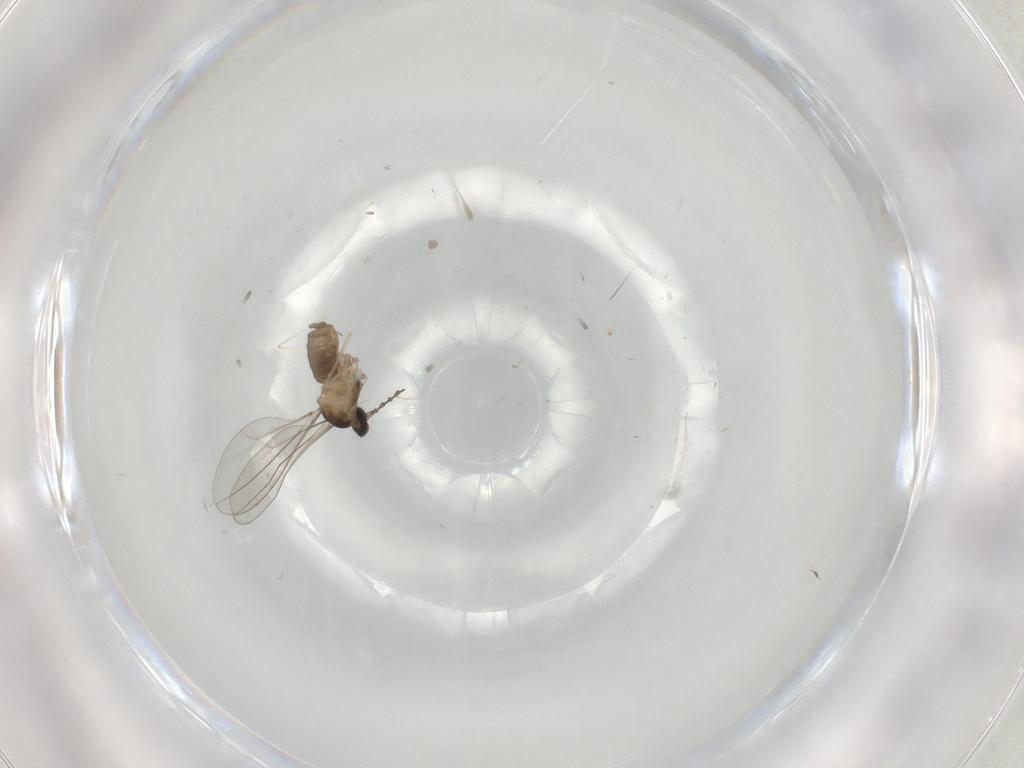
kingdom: Animalia
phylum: Arthropoda
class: Insecta
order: Diptera
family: Cecidomyiidae
